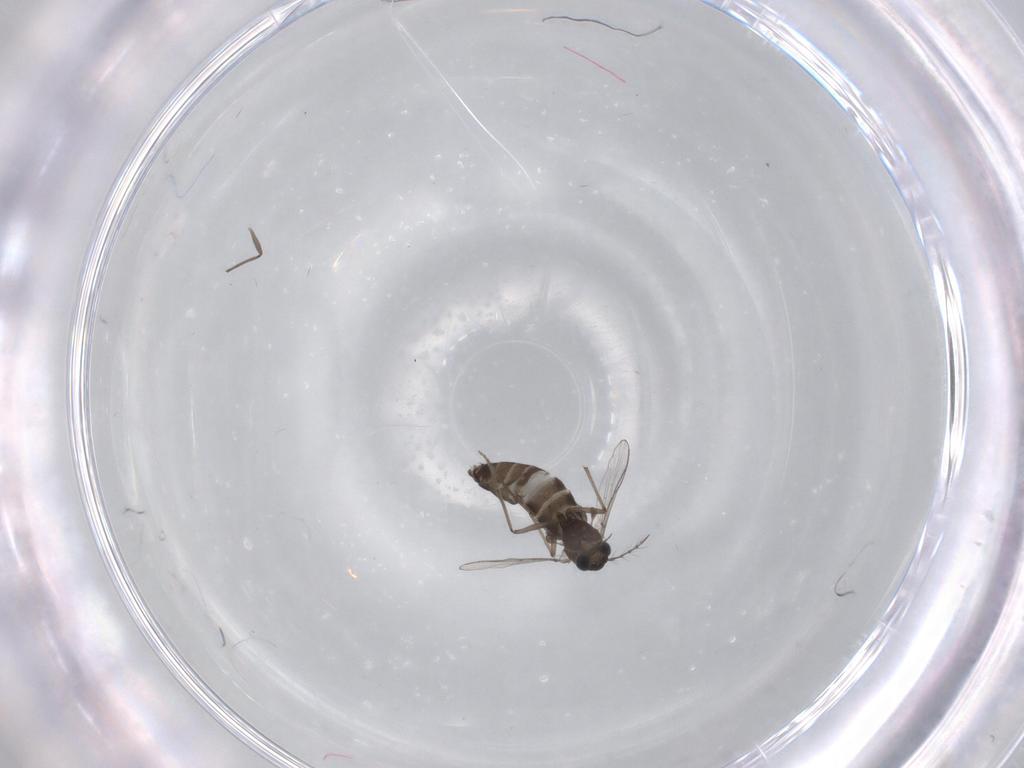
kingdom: Animalia
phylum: Arthropoda
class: Insecta
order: Diptera
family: Chironomidae
